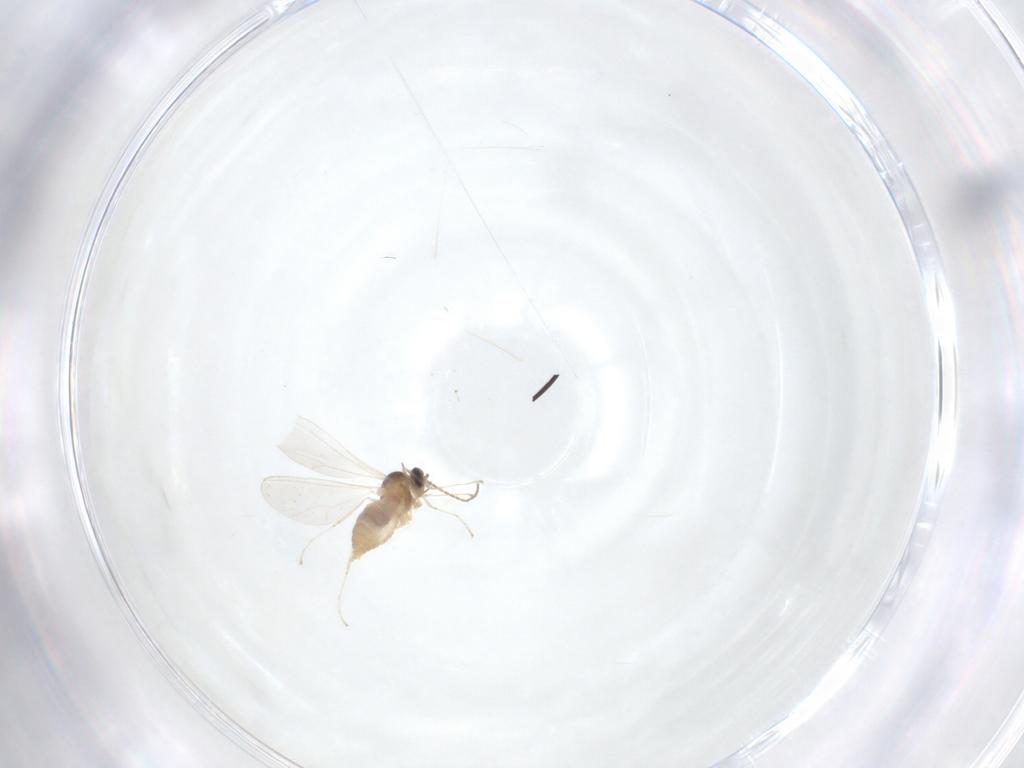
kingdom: Animalia
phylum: Arthropoda
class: Insecta
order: Diptera
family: Cecidomyiidae
